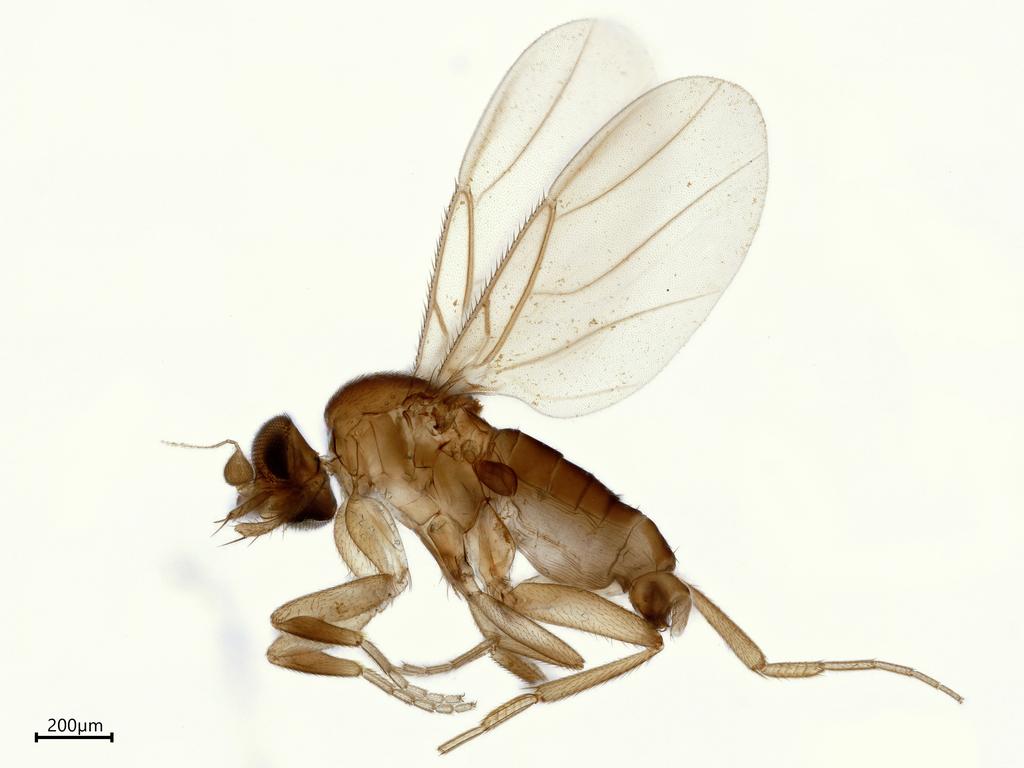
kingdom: Animalia
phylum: Arthropoda
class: Insecta
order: Diptera
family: Phoridae
